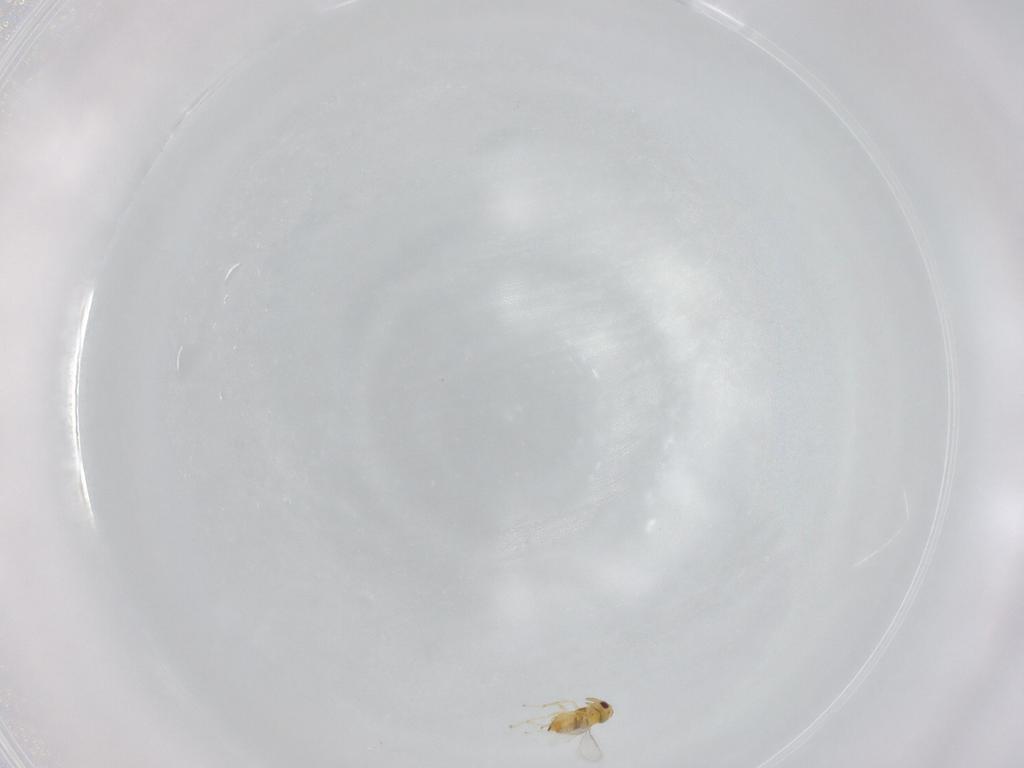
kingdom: Animalia
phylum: Arthropoda
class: Insecta
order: Hymenoptera
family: Aphelinidae
